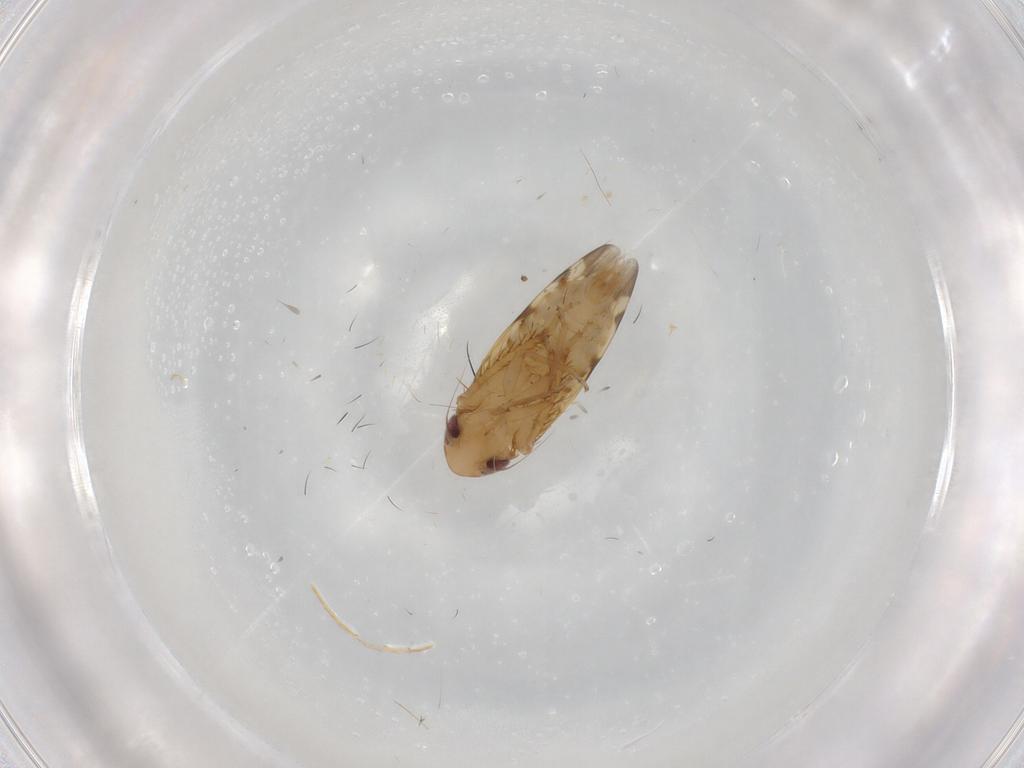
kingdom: Animalia
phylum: Arthropoda
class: Insecta
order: Hemiptera
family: Cicadellidae
